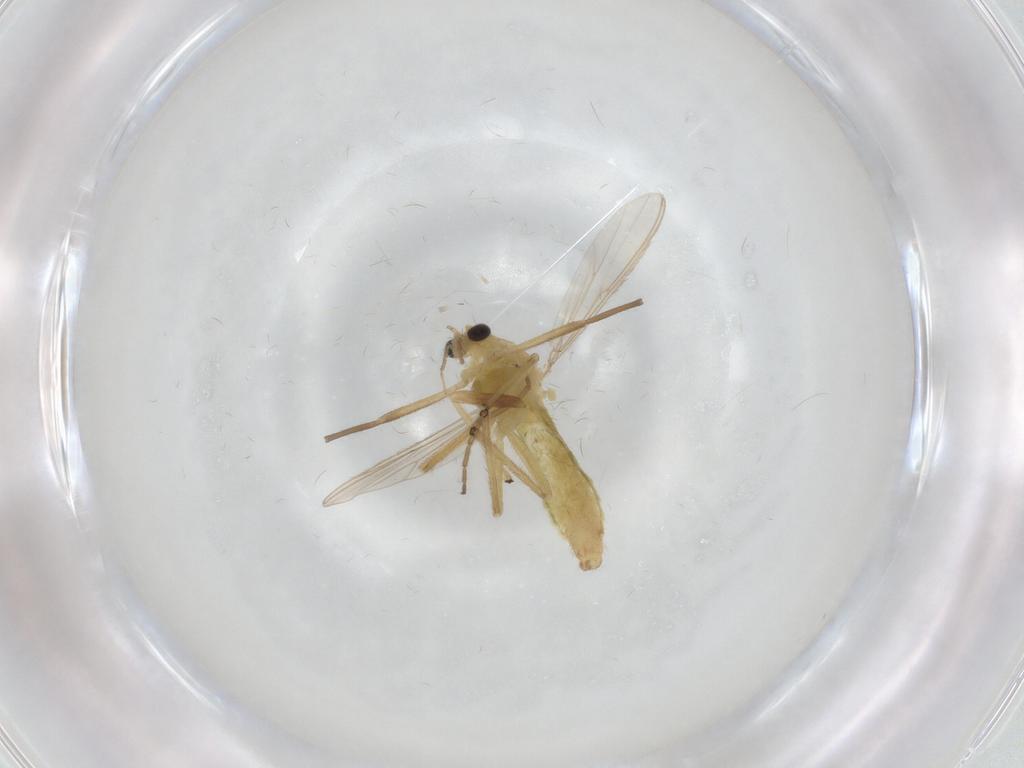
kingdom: Animalia
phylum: Arthropoda
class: Insecta
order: Diptera
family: Chironomidae
